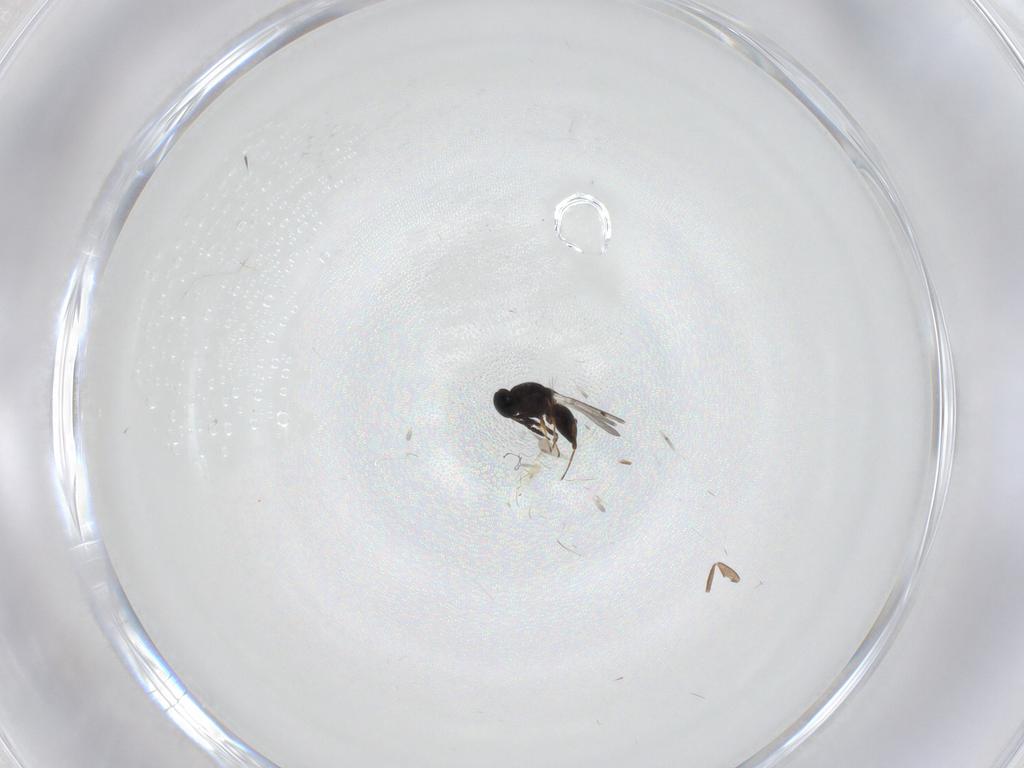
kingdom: Animalia
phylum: Arthropoda
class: Insecta
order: Hymenoptera
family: Platygastridae
